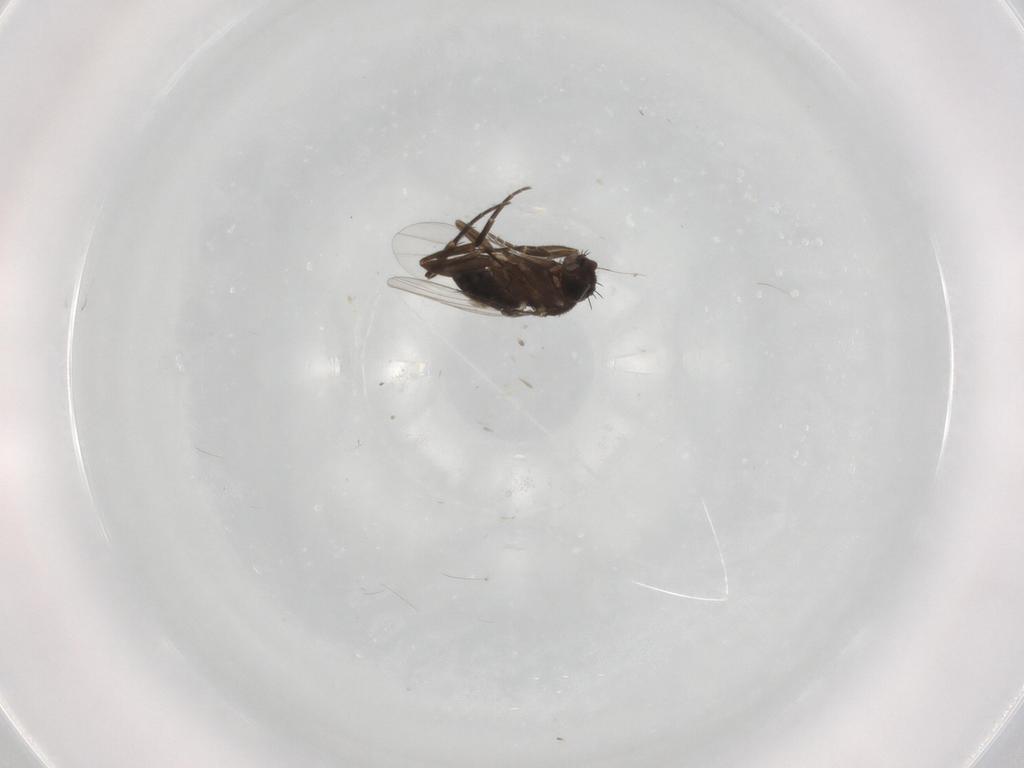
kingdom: Animalia
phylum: Arthropoda
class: Insecta
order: Diptera
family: Phoridae
